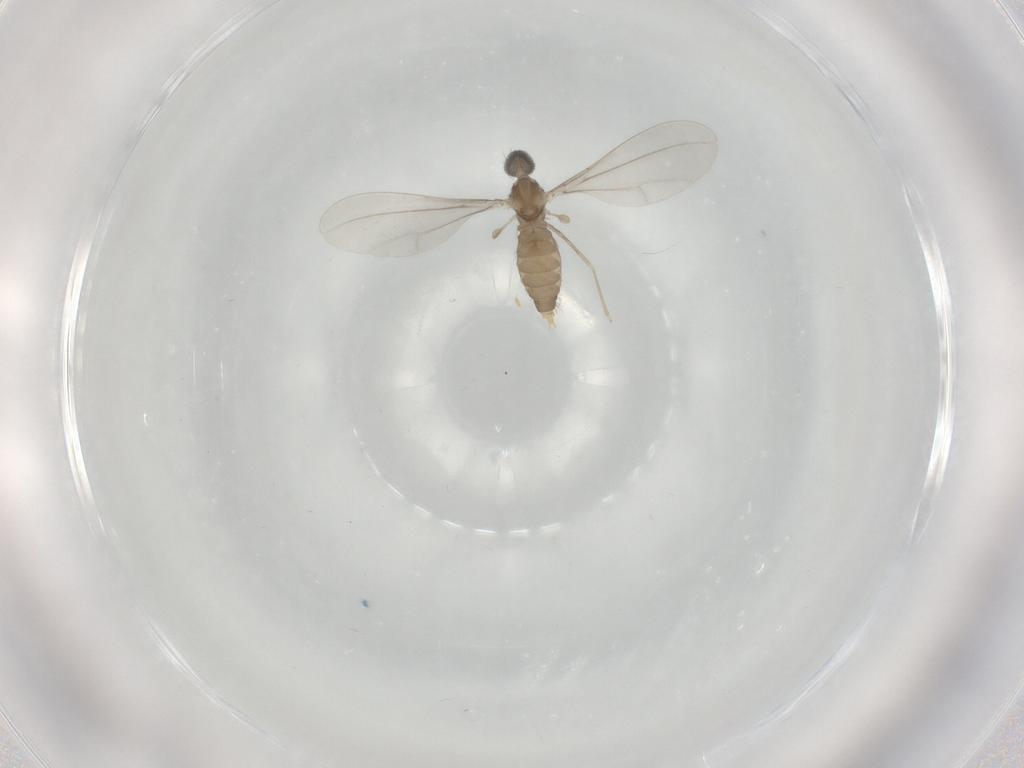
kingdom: Animalia
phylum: Arthropoda
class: Insecta
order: Diptera
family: Cecidomyiidae
